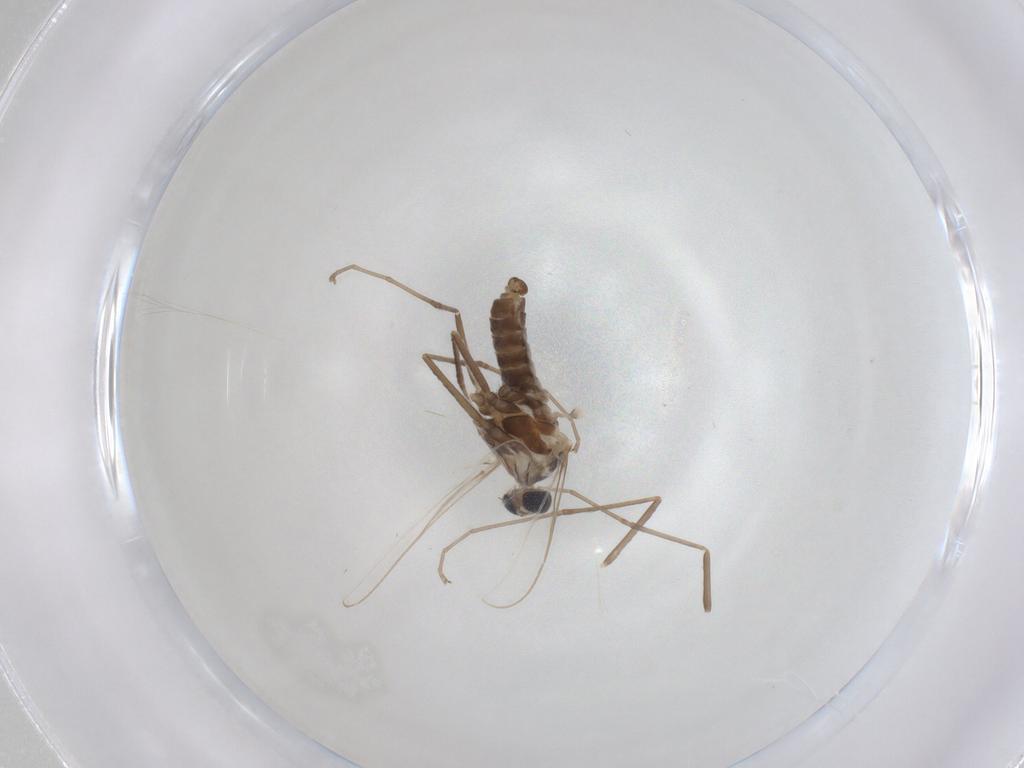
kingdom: Animalia
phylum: Arthropoda
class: Insecta
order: Diptera
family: Cecidomyiidae
